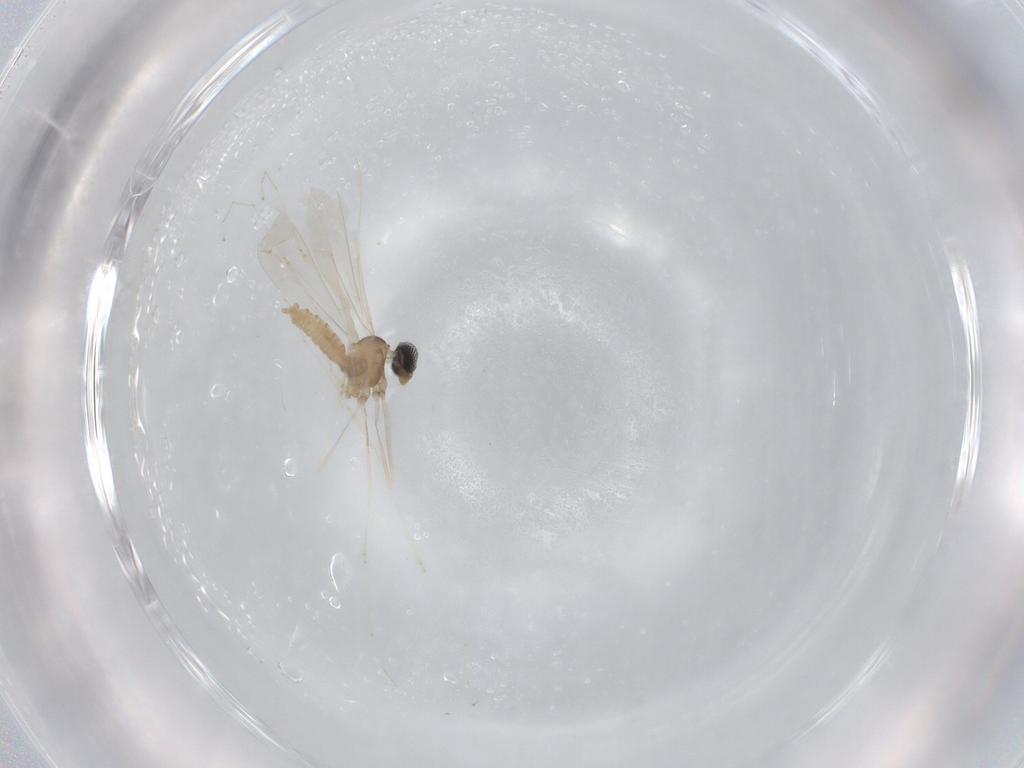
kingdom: Animalia
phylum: Arthropoda
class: Insecta
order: Diptera
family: Cecidomyiidae
